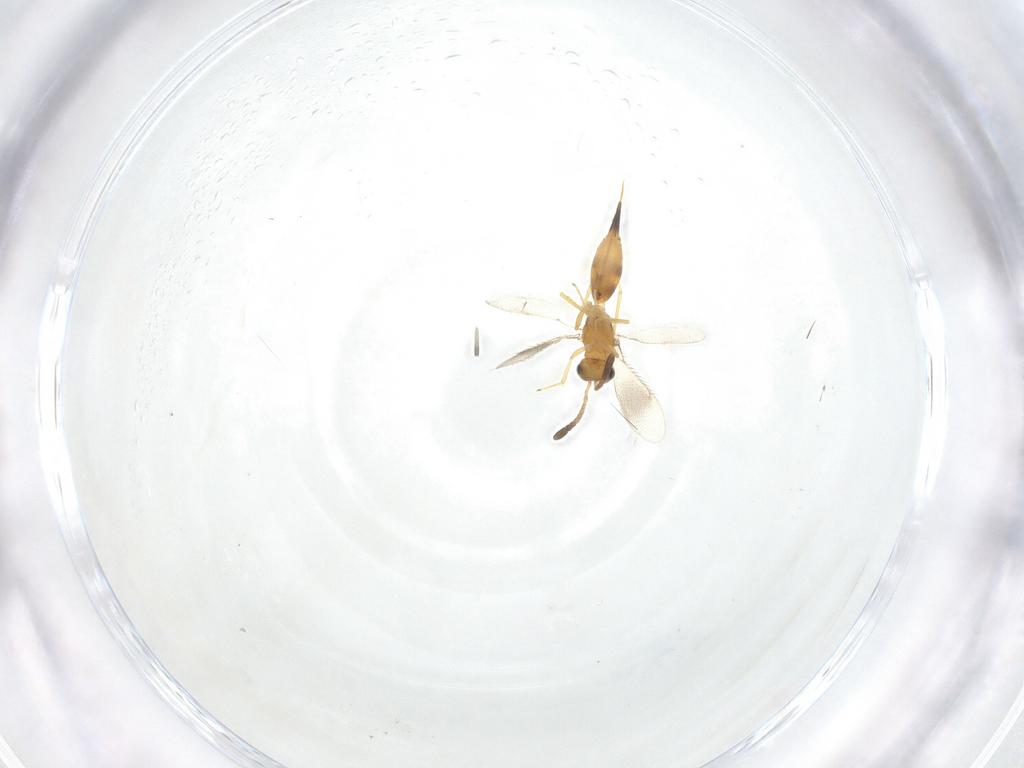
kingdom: Animalia
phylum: Arthropoda
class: Insecta
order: Hymenoptera
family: Diparidae
